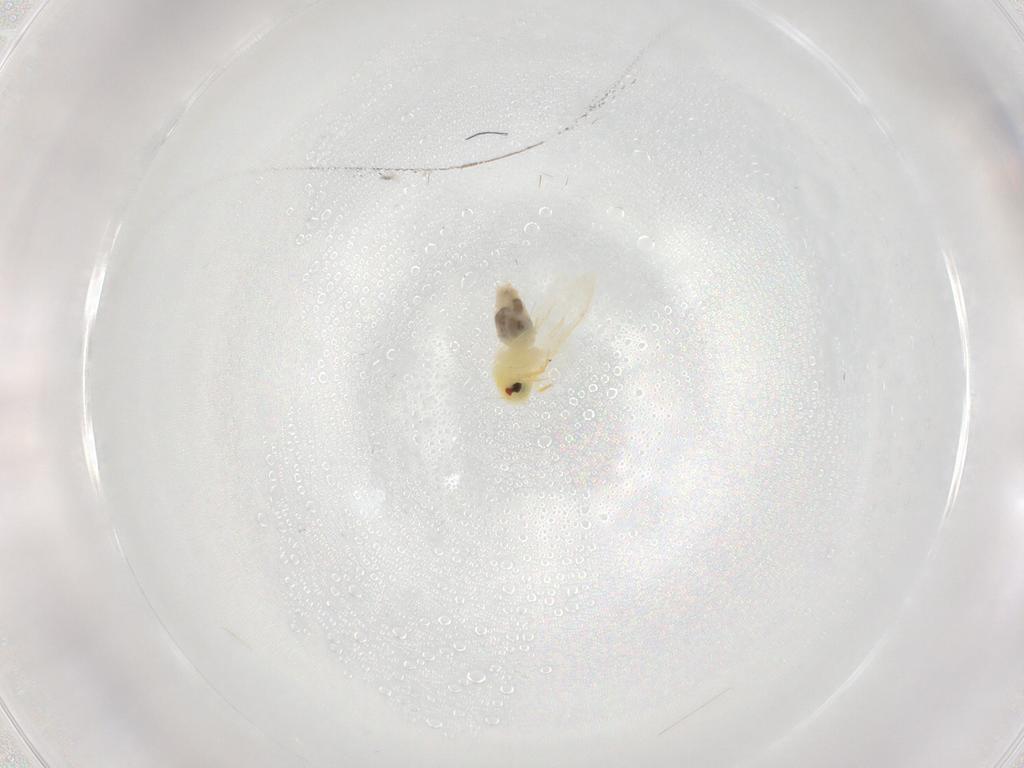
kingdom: Animalia
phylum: Arthropoda
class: Insecta
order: Hemiptera
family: Aleyrodidae
